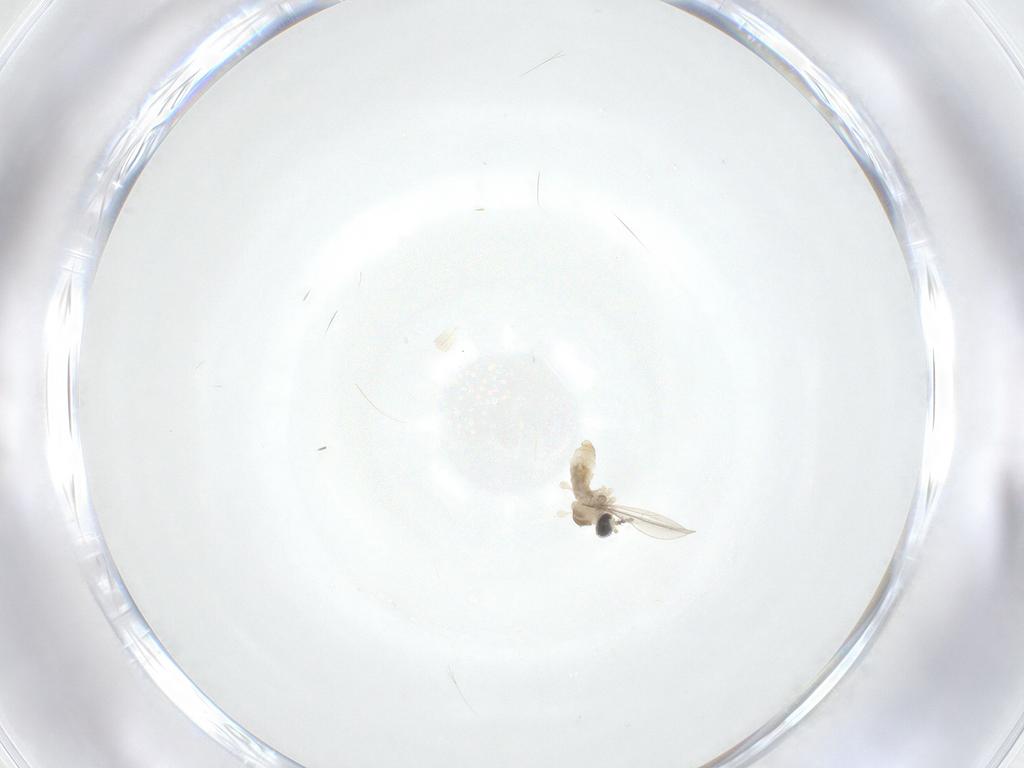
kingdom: Animalia
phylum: Arthropoda
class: Insecta
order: Diptera
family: Cecidomyiidae
